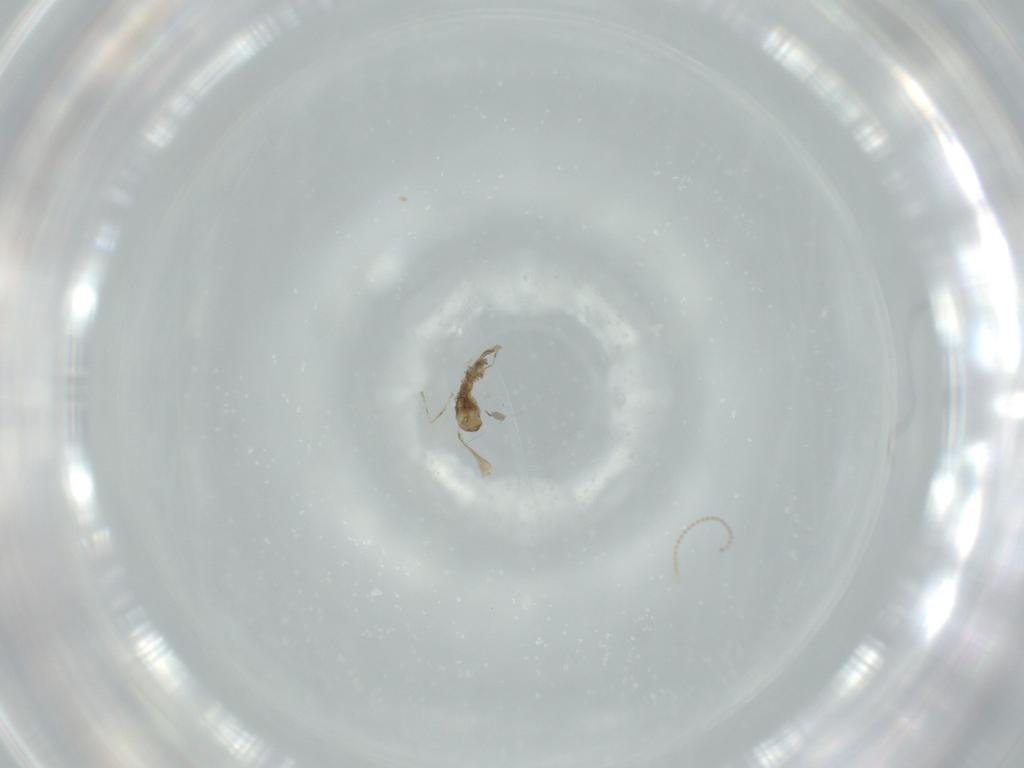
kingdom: Animalia
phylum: Arthropoda
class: Insecta
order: Diptera
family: Cecidomyiidae
